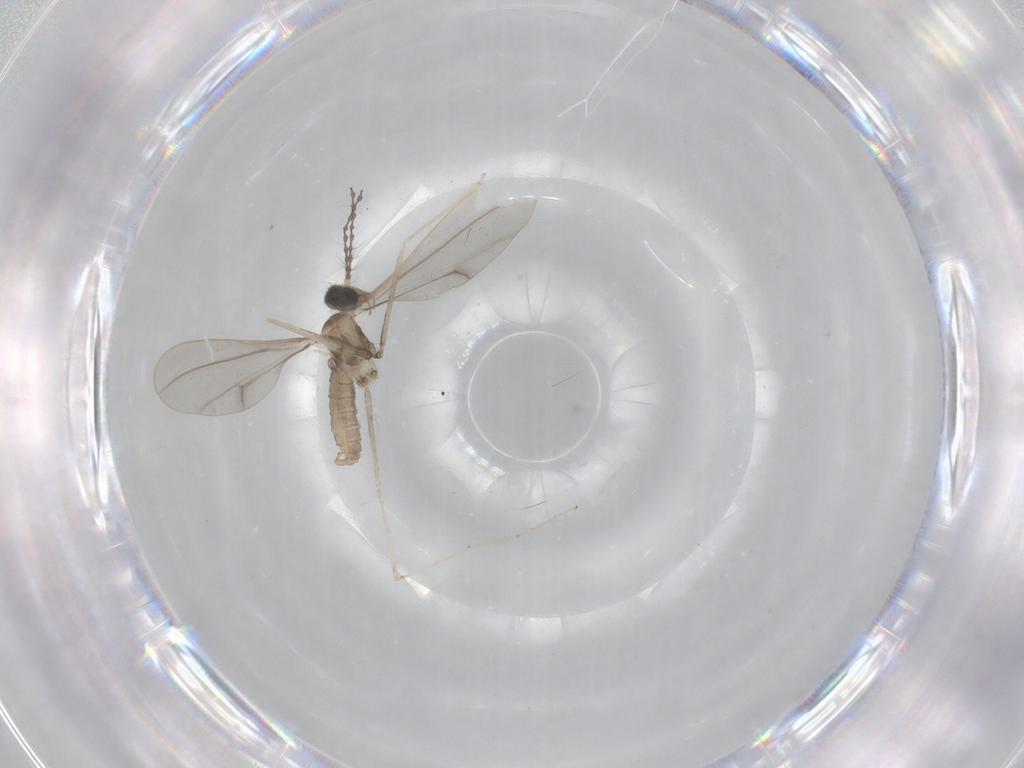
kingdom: Animalia
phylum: Arthropoda
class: Insecta
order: Diptera
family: Cecidomyiidae
